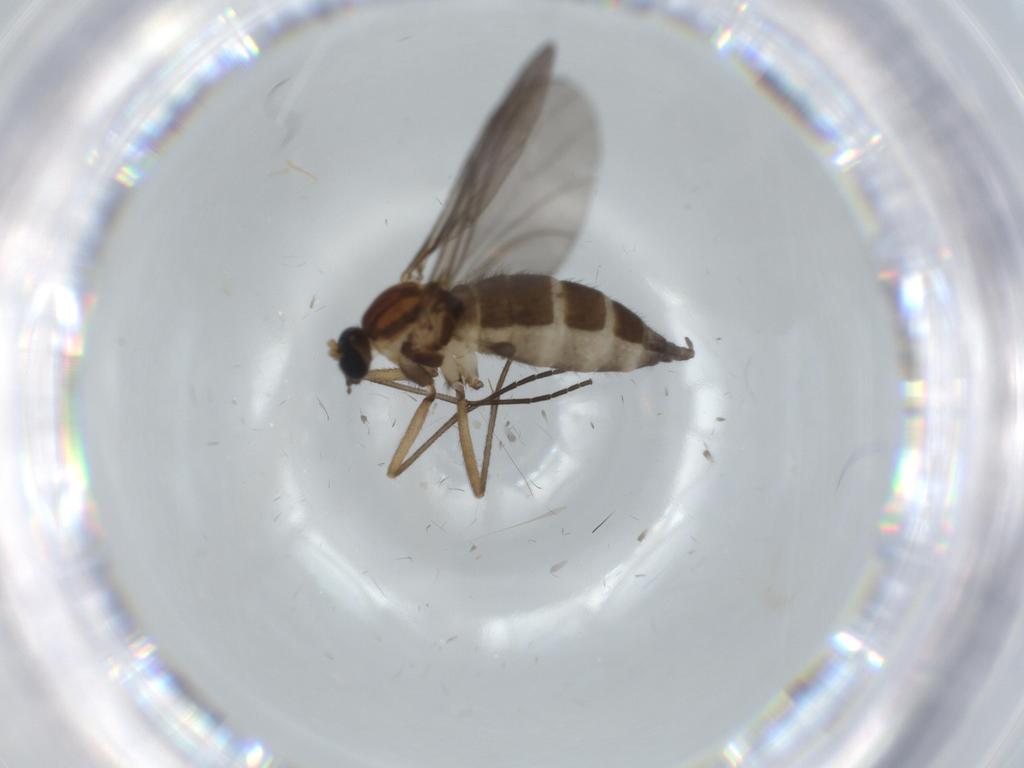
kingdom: Animalia
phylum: Arthropoda
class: Insecta
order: Diptera
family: Sciaridae
